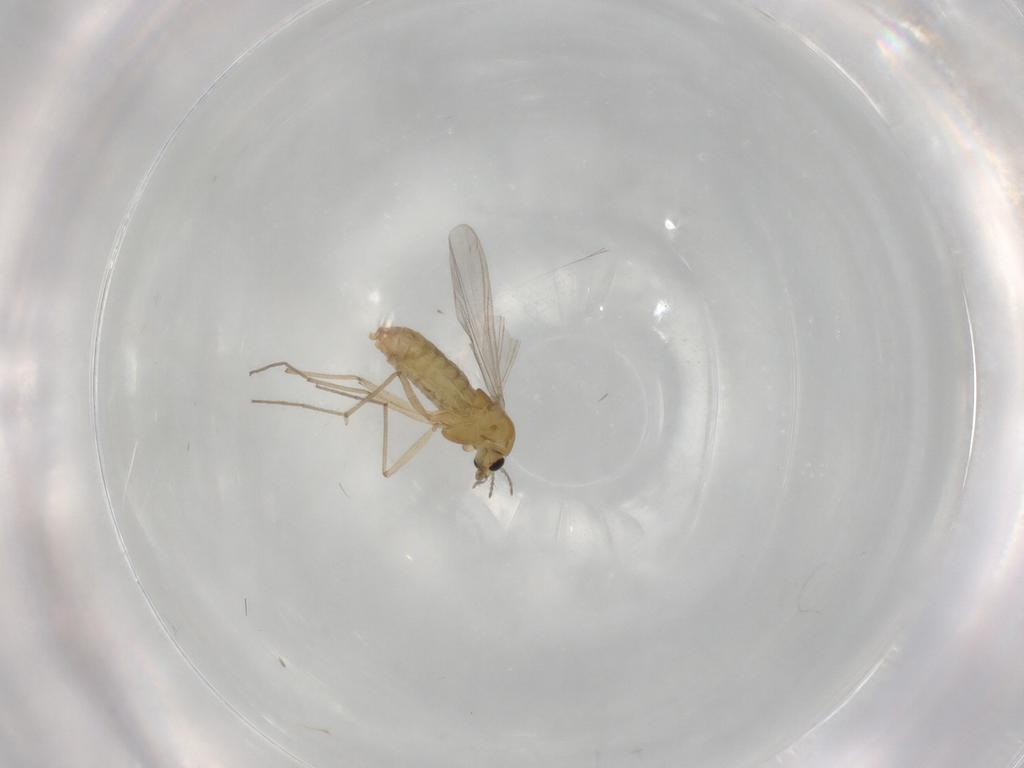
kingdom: Animalia
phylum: Arthropoda
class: Insecta
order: Diptera
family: Chironomidae
